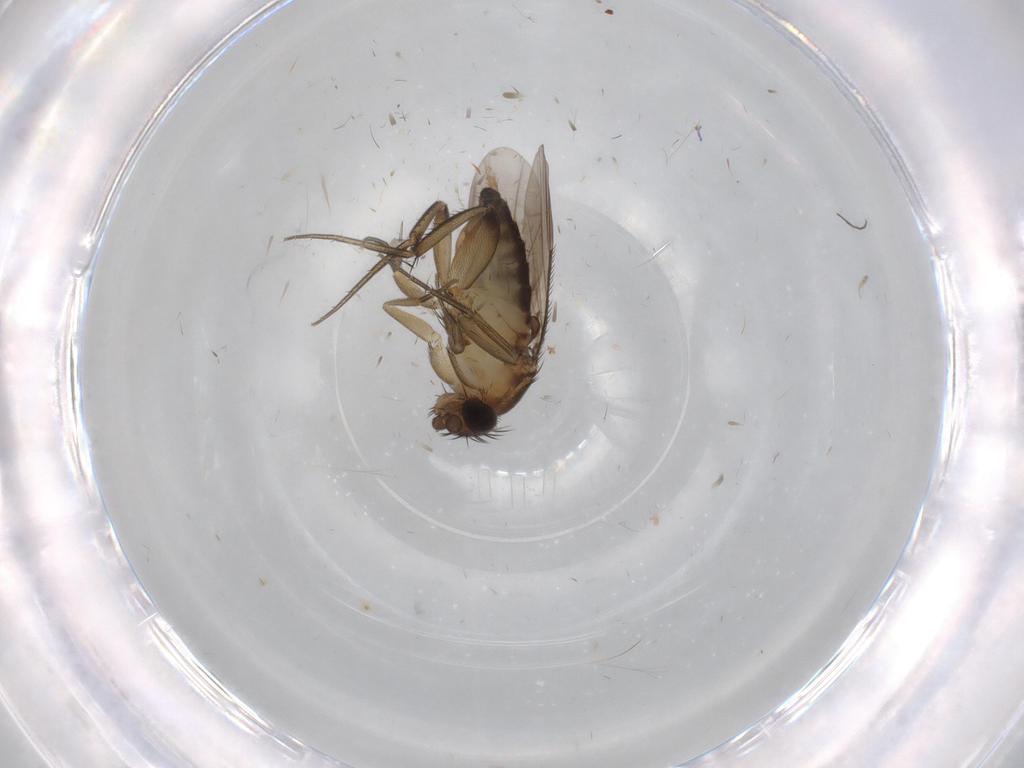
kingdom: Animalia
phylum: Arthropoda
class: Insecta
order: Diptera
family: Phoridae
